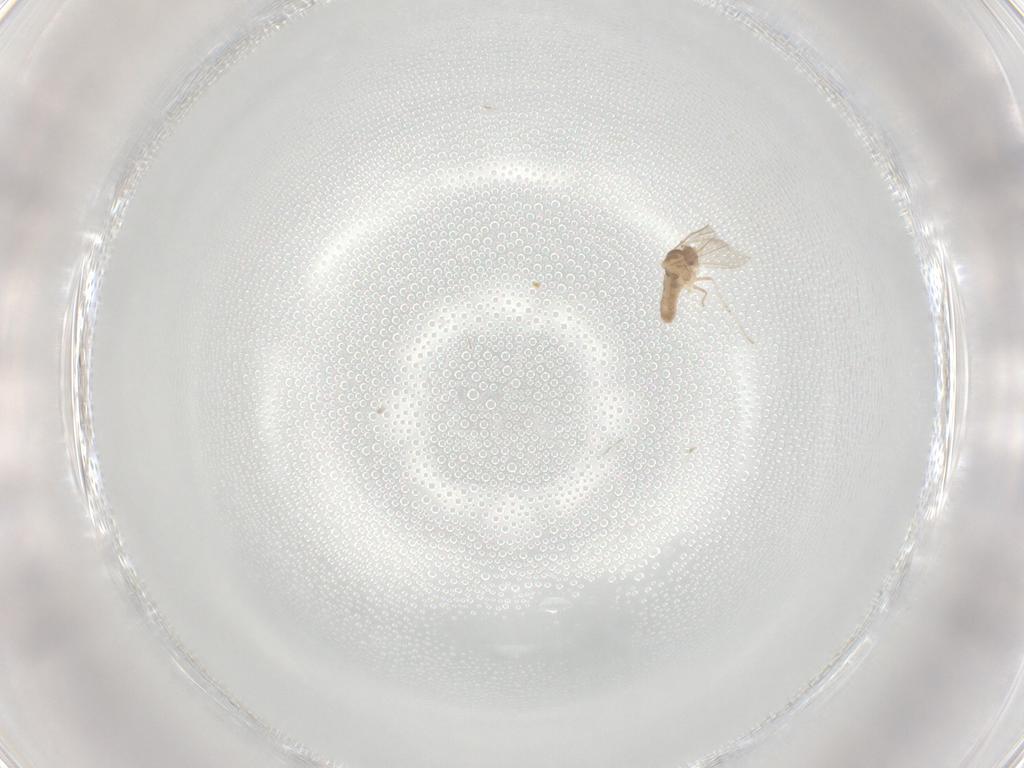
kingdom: Animalia
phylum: Arthropoda
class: Insecta
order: Diptera
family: Tabanidae
